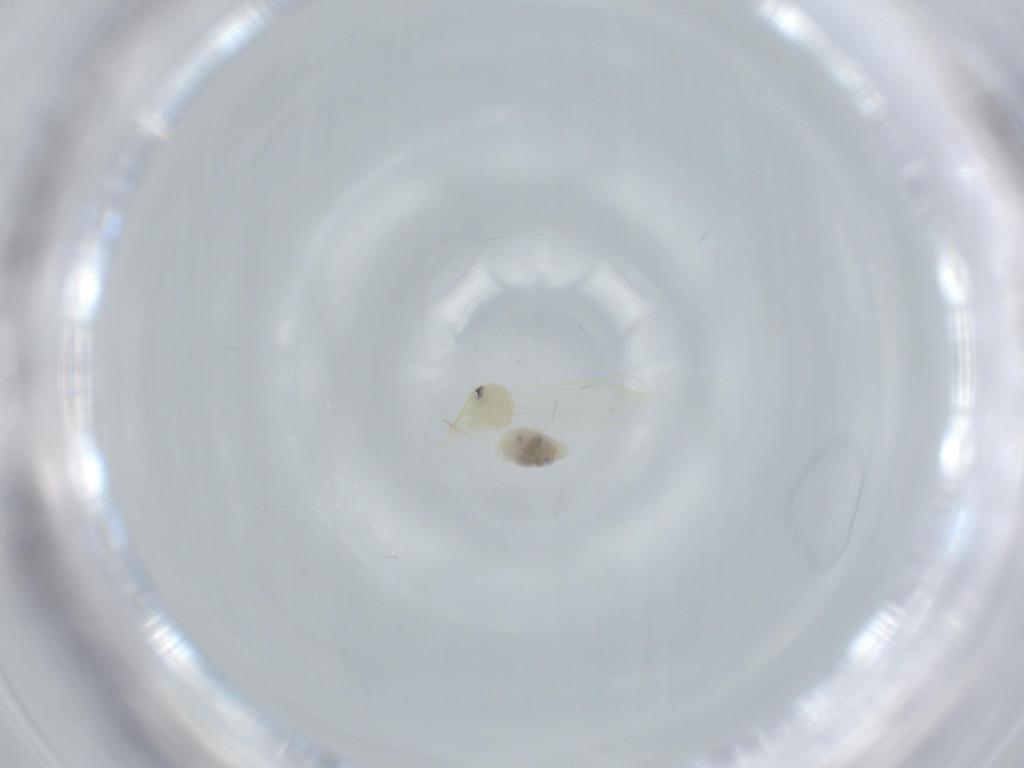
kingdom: Animalia
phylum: Arthropoda
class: Insecta
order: Hemiptera
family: Aleyrodidae
